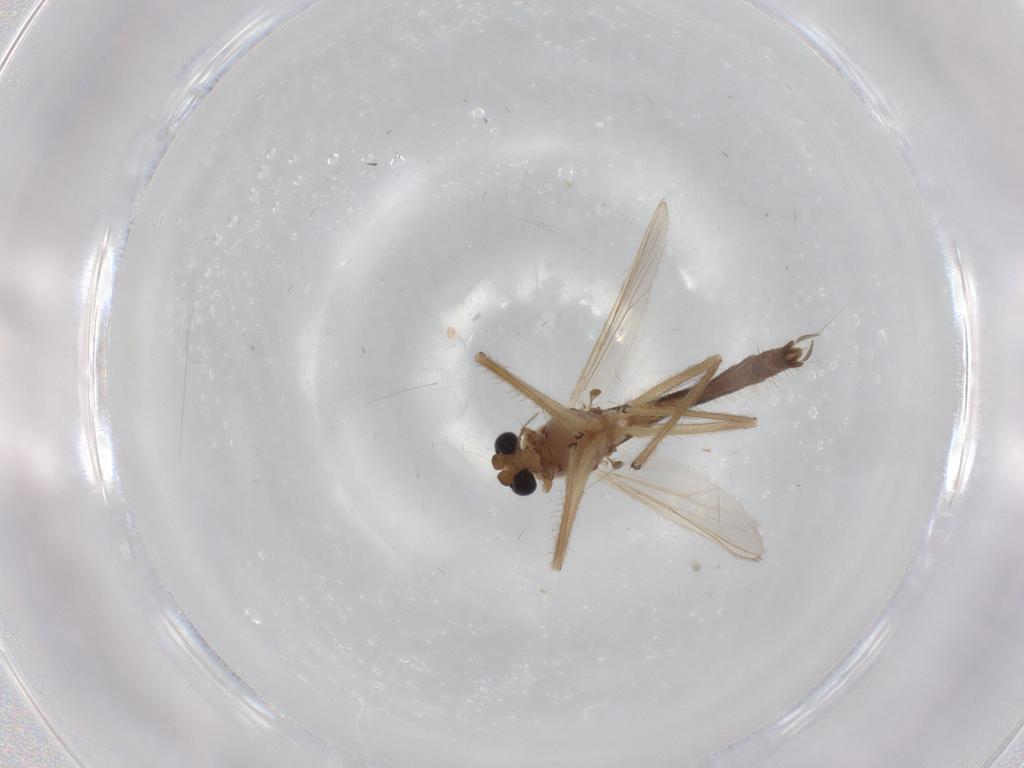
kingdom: Animalia
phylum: Arthropoda
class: Insecta
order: Diptera
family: Chironomidae
